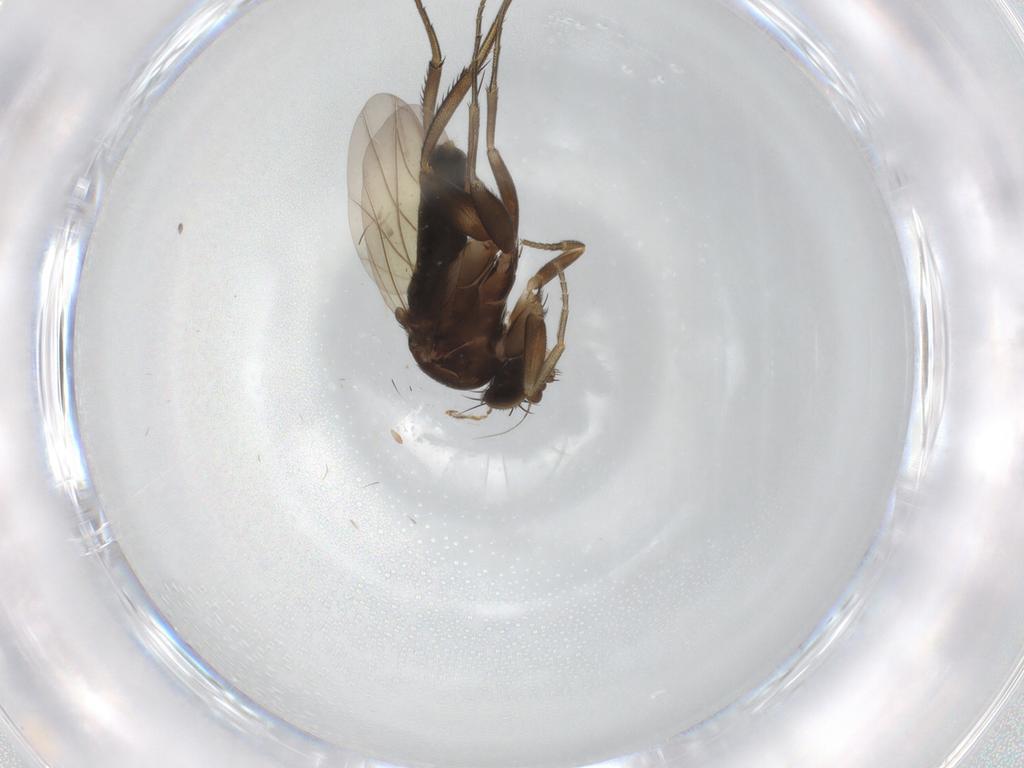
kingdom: Animalia
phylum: Arthropoda
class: Insecta
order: Diptera
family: Phoridae
